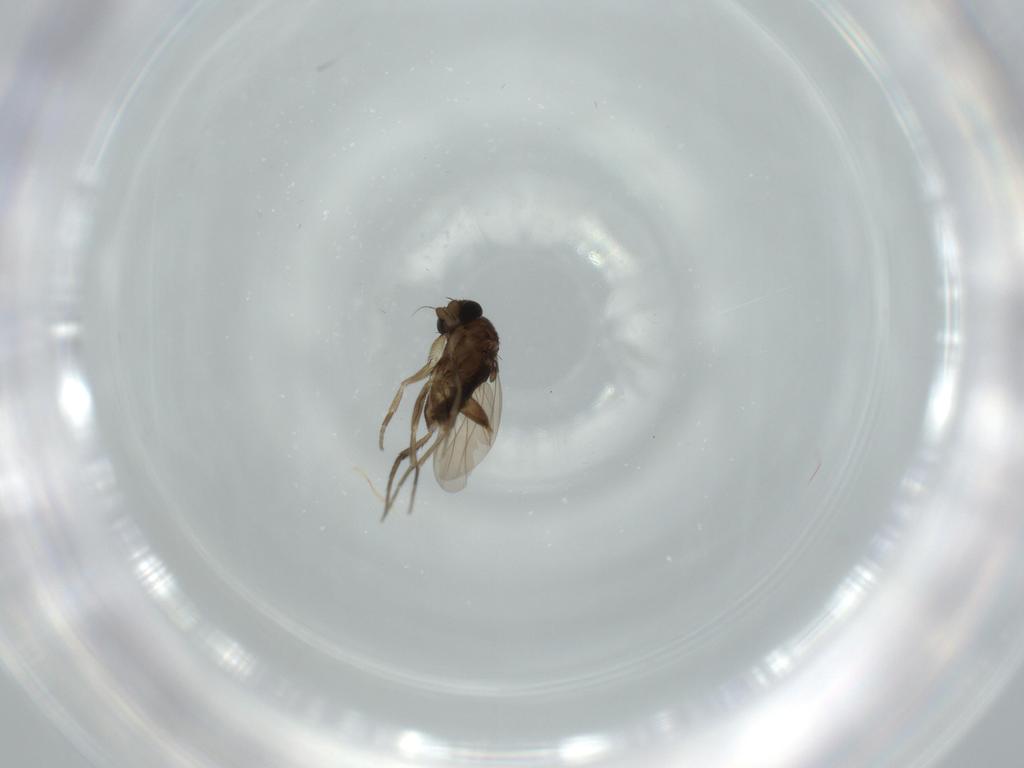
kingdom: Animalia
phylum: Arthropoda
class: Insecta
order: Diptera
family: Phoridae
